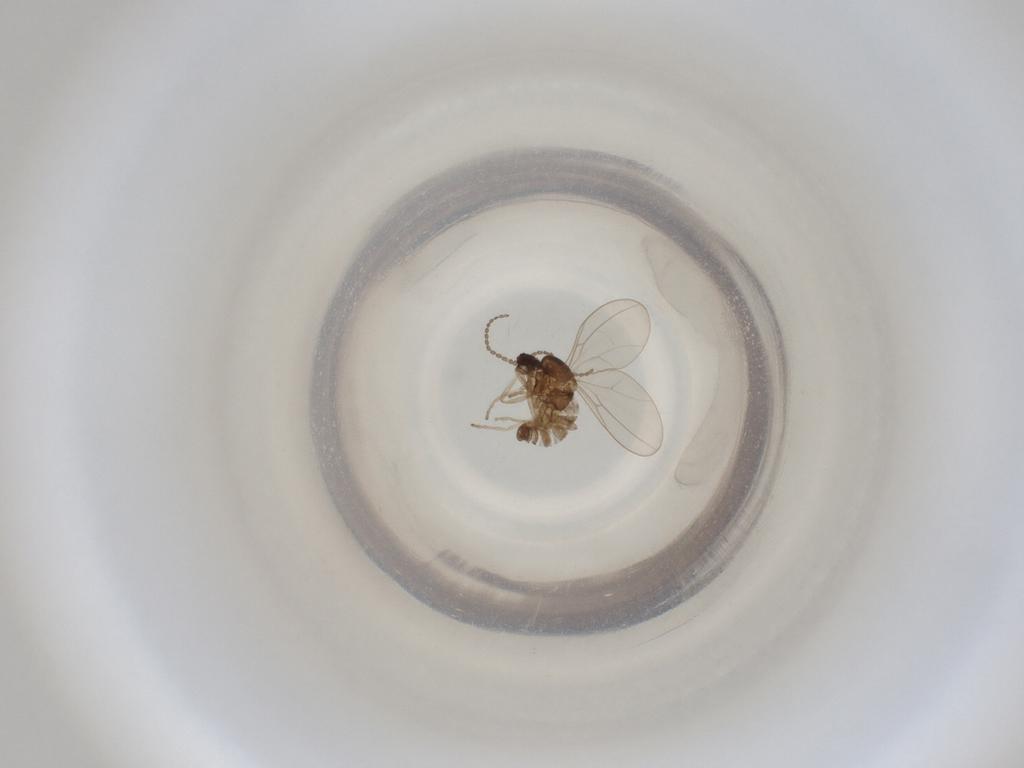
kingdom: Animalia
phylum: Arthropoda
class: Insecta
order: Diptera
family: Cecidomyiidae
